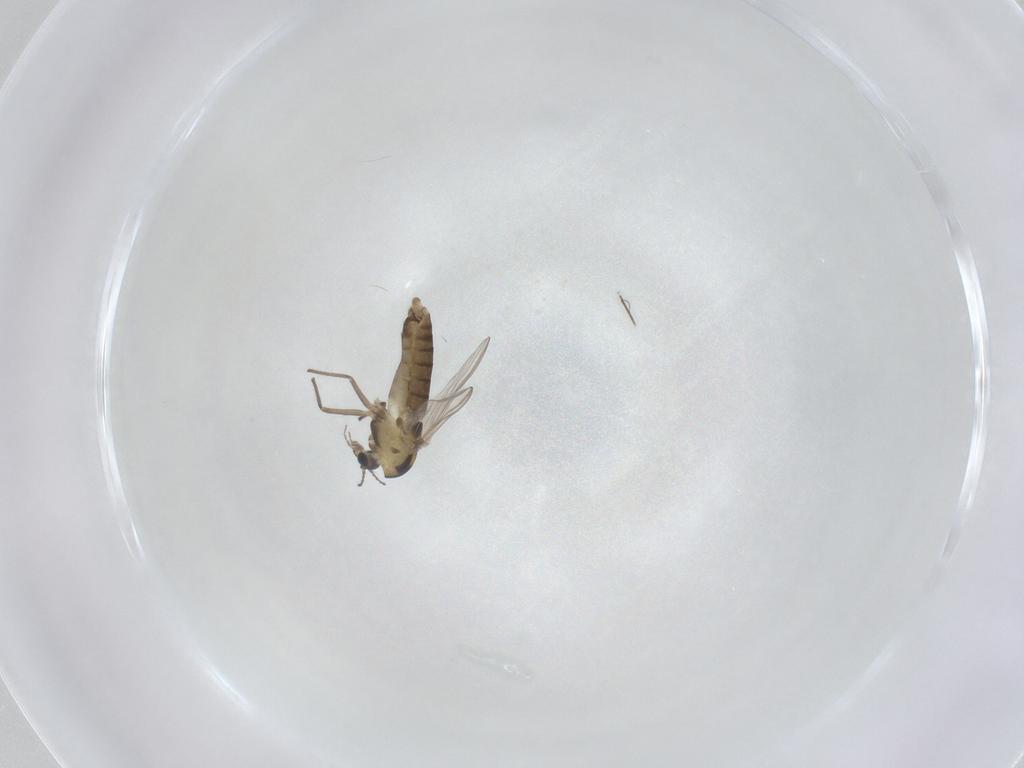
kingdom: Animalia
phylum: Arthropoda
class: Insecta
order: Diptera
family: Chironomidae
